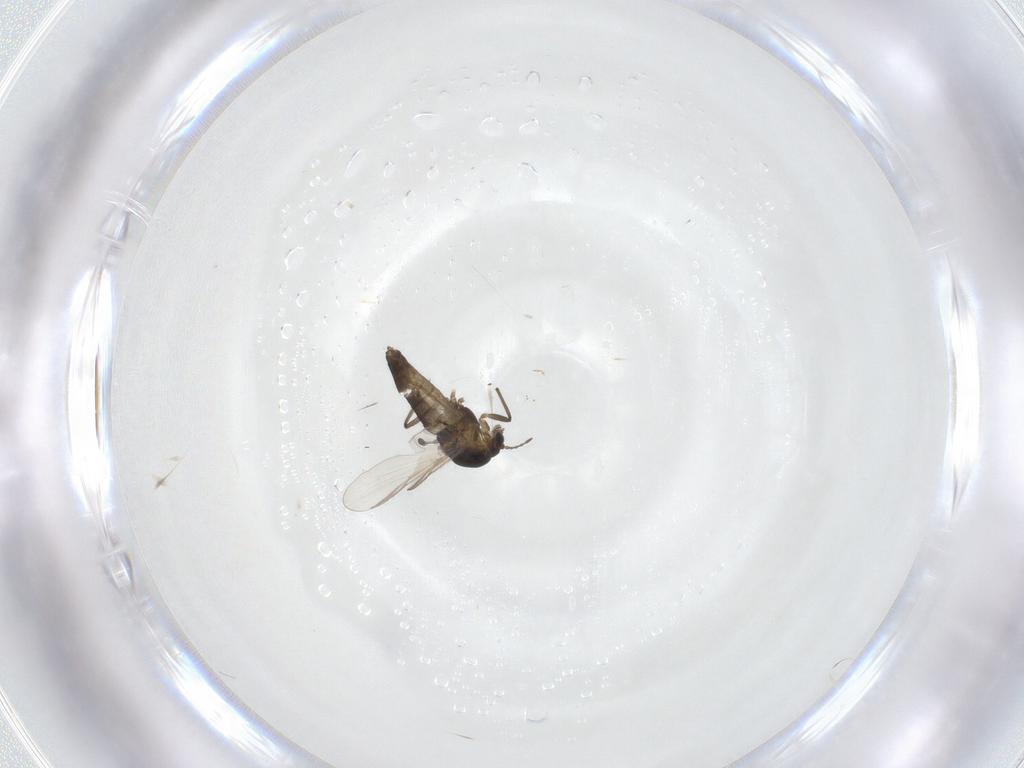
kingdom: Animalia
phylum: Arthropoda
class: Insecta
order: Diptera
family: Chironomidae
